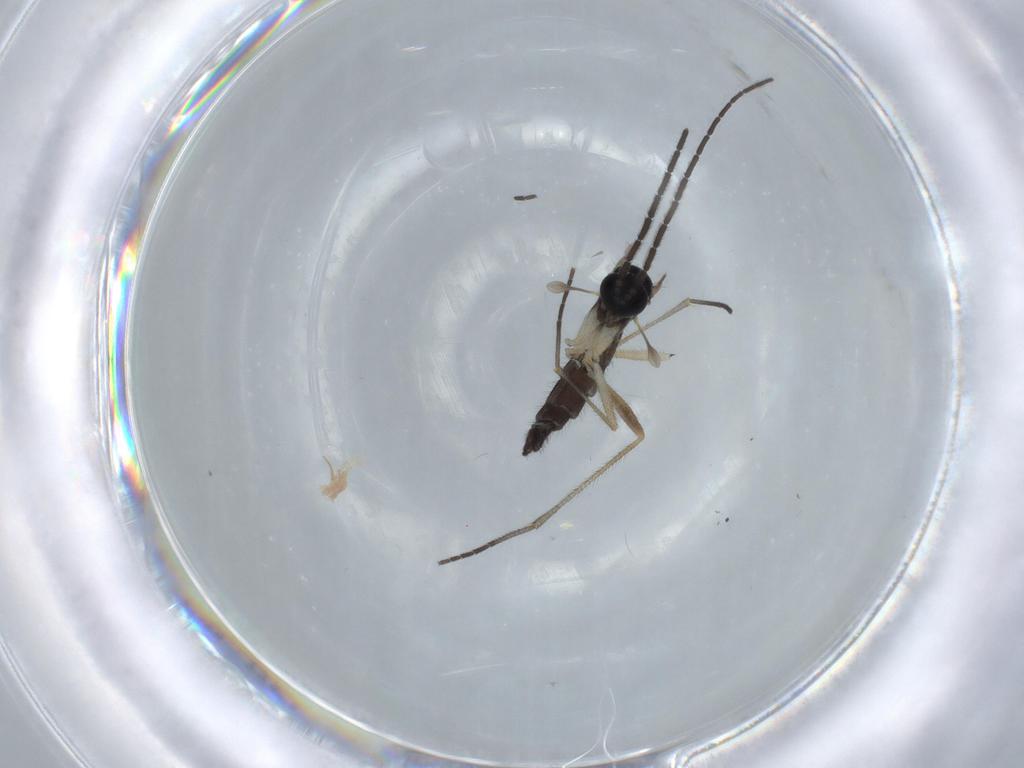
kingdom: Animalia
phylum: Arthropoda
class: Insecta
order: Diptera
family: Sciaridae
